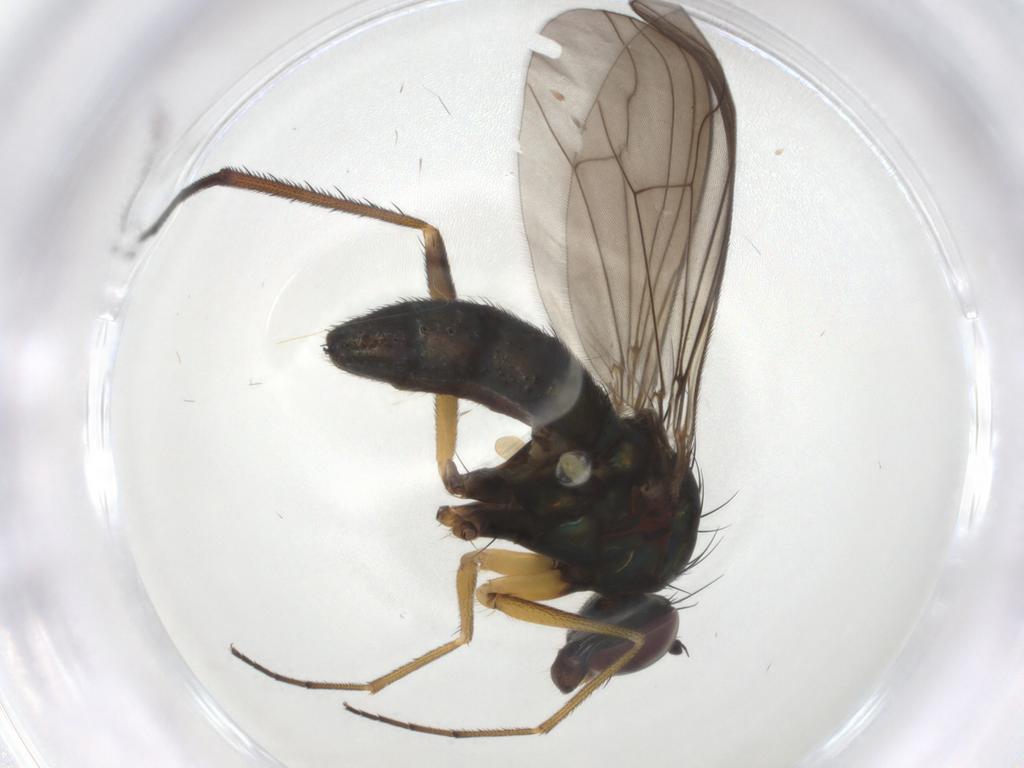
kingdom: Animalia
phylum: Arthropoda
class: Insecta
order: Diptera
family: Dolichopodidae
